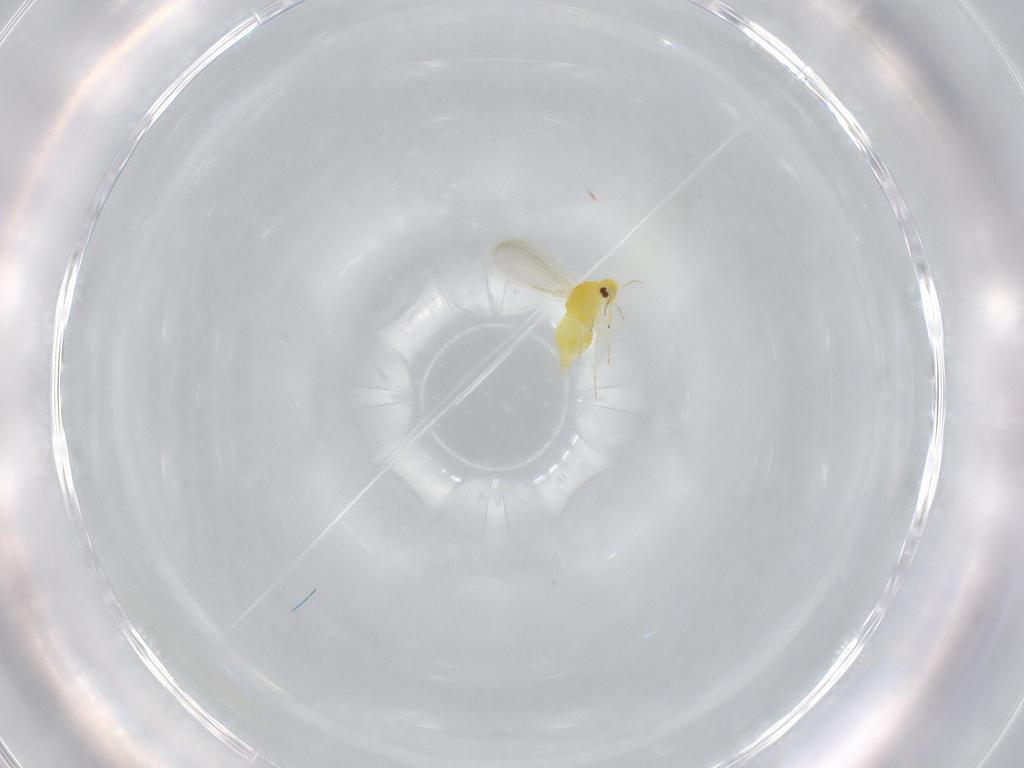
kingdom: Animalia
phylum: Arthropoda
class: Insecta
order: Hemiptera
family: Aleyrodidae
